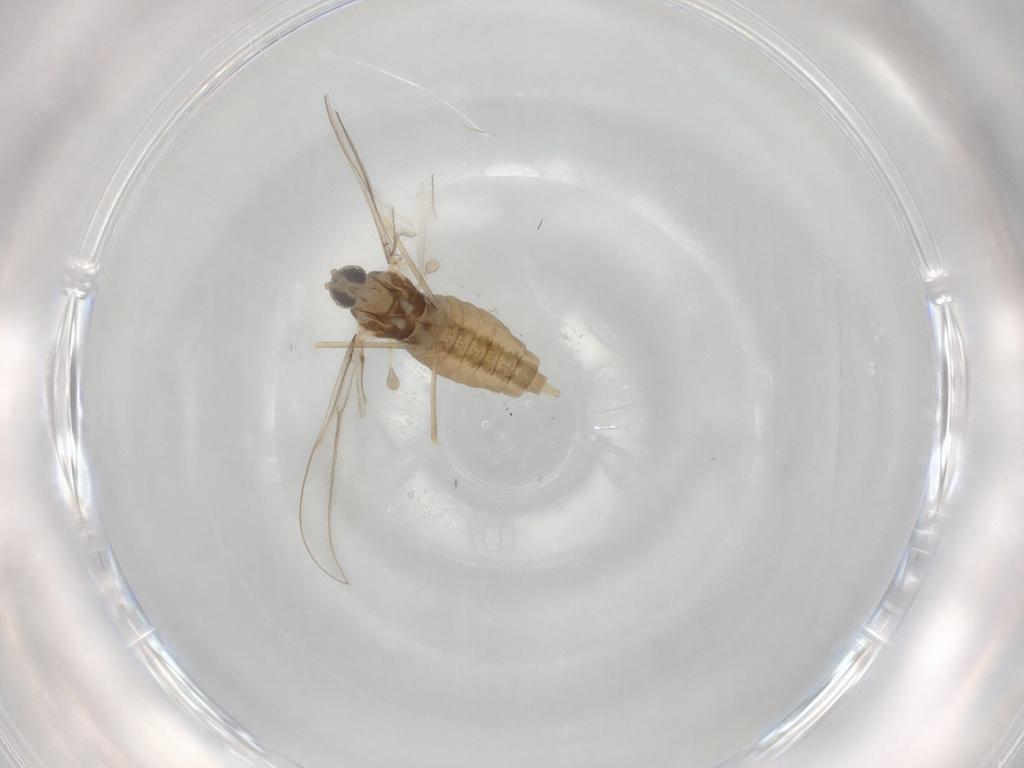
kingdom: Animalia
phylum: Arthropoda
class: Insecta
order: Diptera
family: Cecidomyiidae
